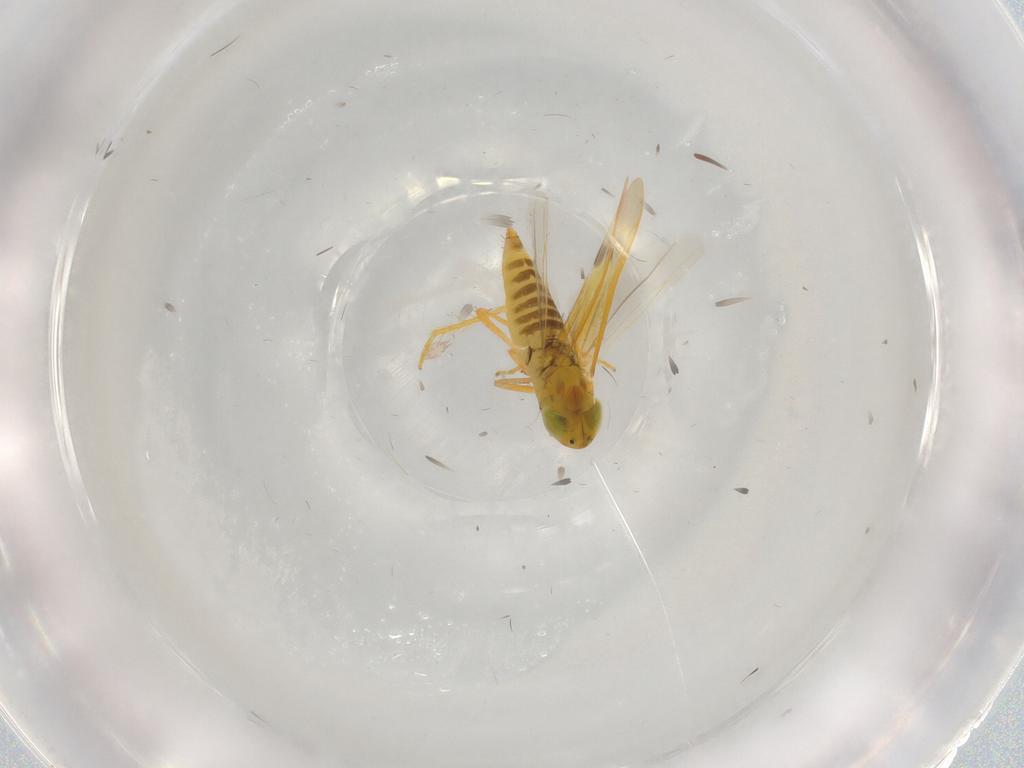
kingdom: Animalia
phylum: Arthropoda
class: Insecta
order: Hemiptera
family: Cicadellidae
